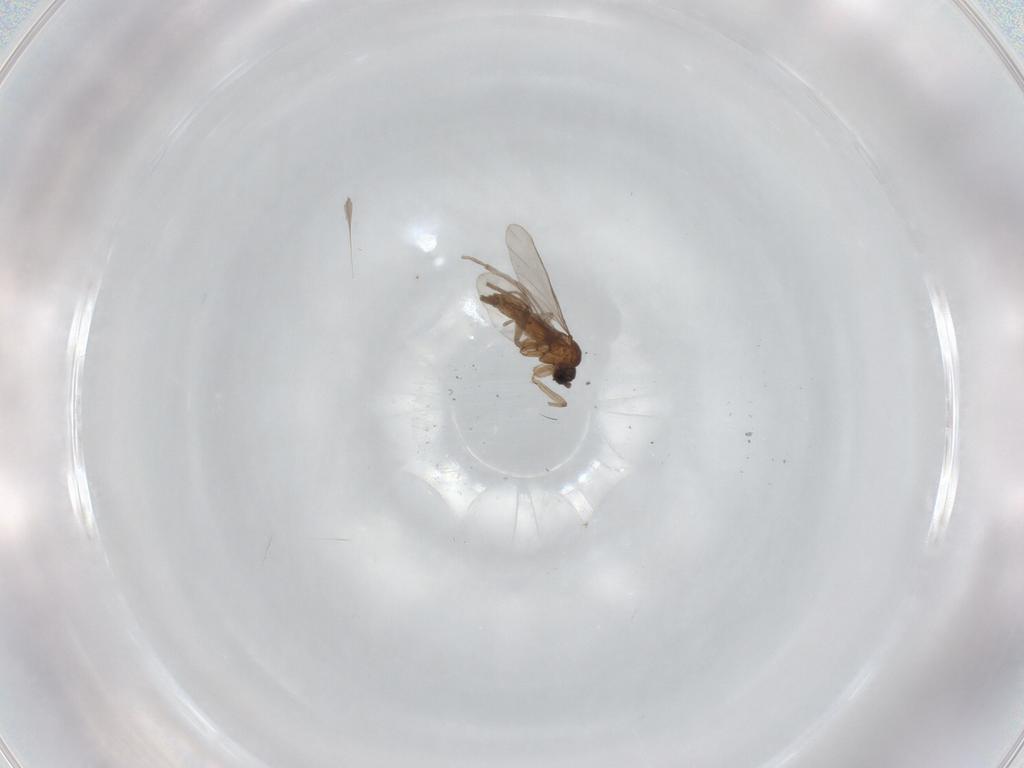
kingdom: Animalia
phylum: Arthropoda
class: Insecta
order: Diptera
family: Sciaridae
